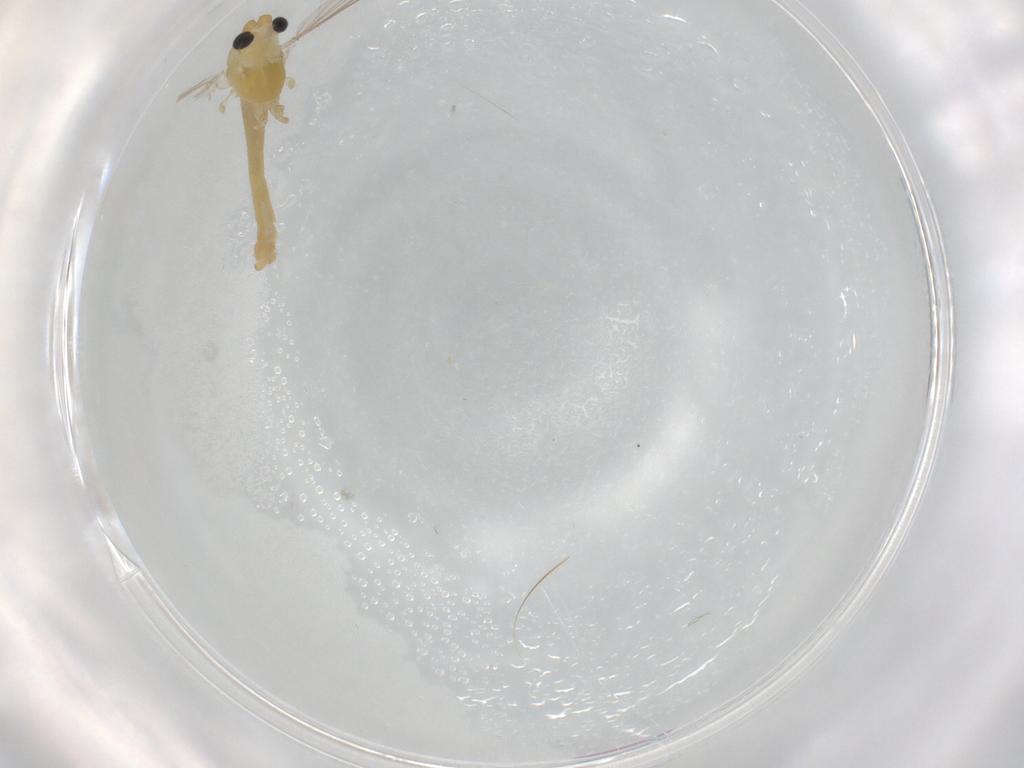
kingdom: Animalia
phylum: Arthropoda
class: Insecta
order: Diptera
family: Chironomidae
